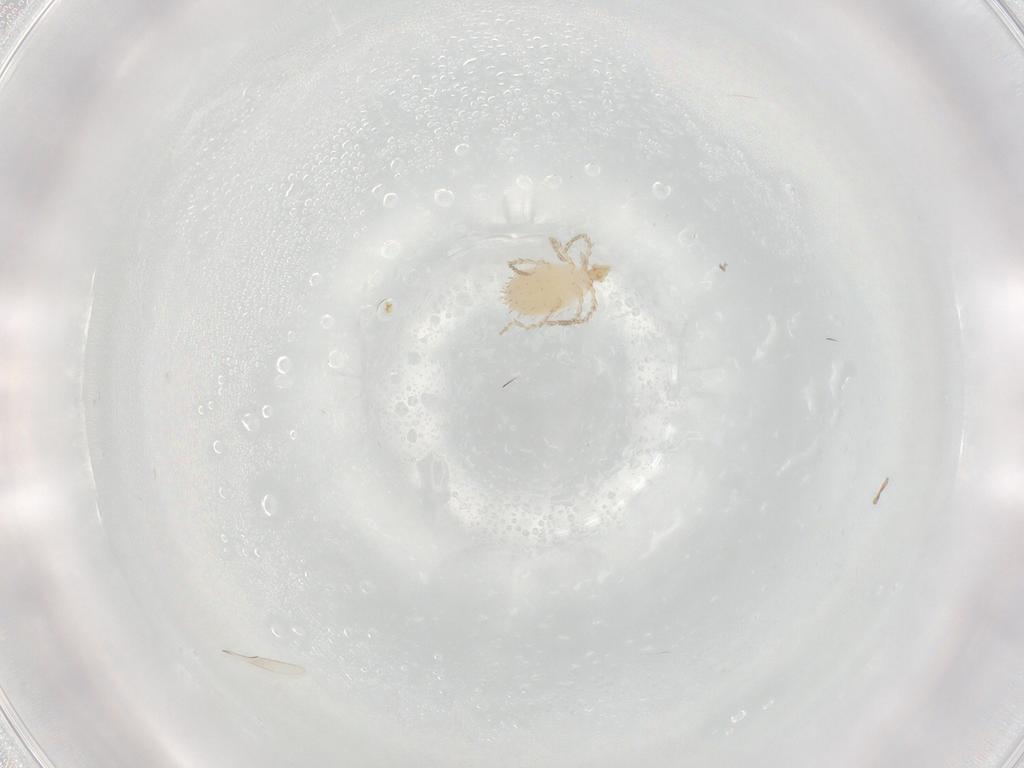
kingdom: Animalia
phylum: Arthropoda
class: Arachnida
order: Trombidiformes
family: Erythraeidae
